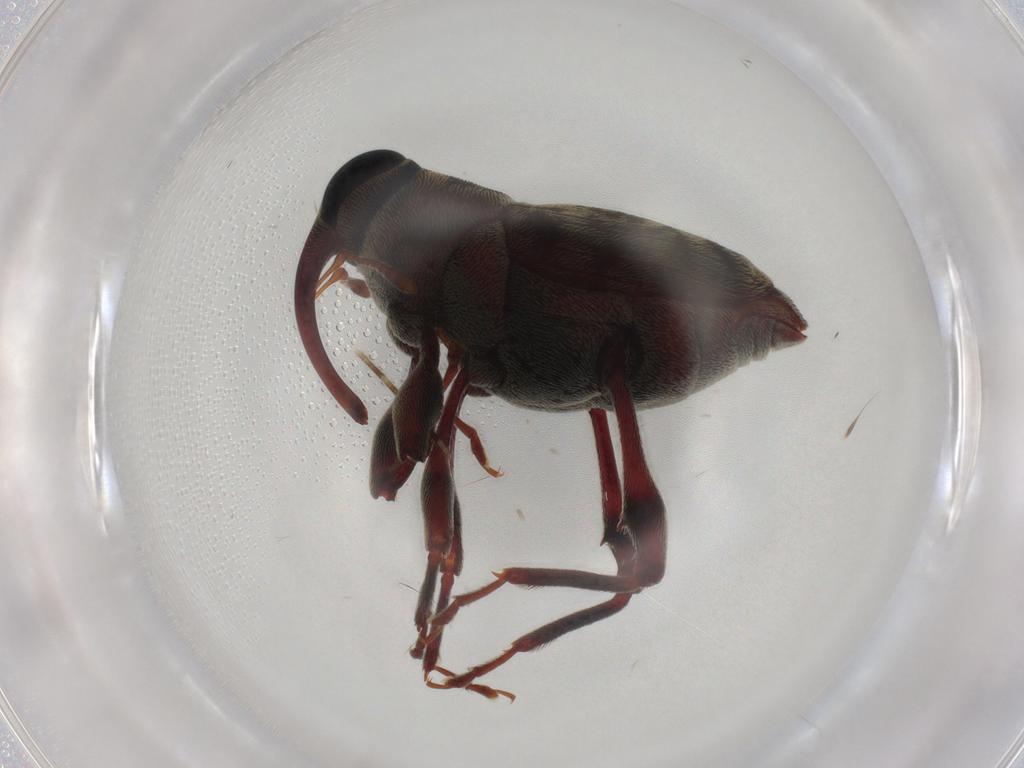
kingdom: Animalia
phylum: Arthropoda
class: Insecta
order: Coleoptera
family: Curculionidae
